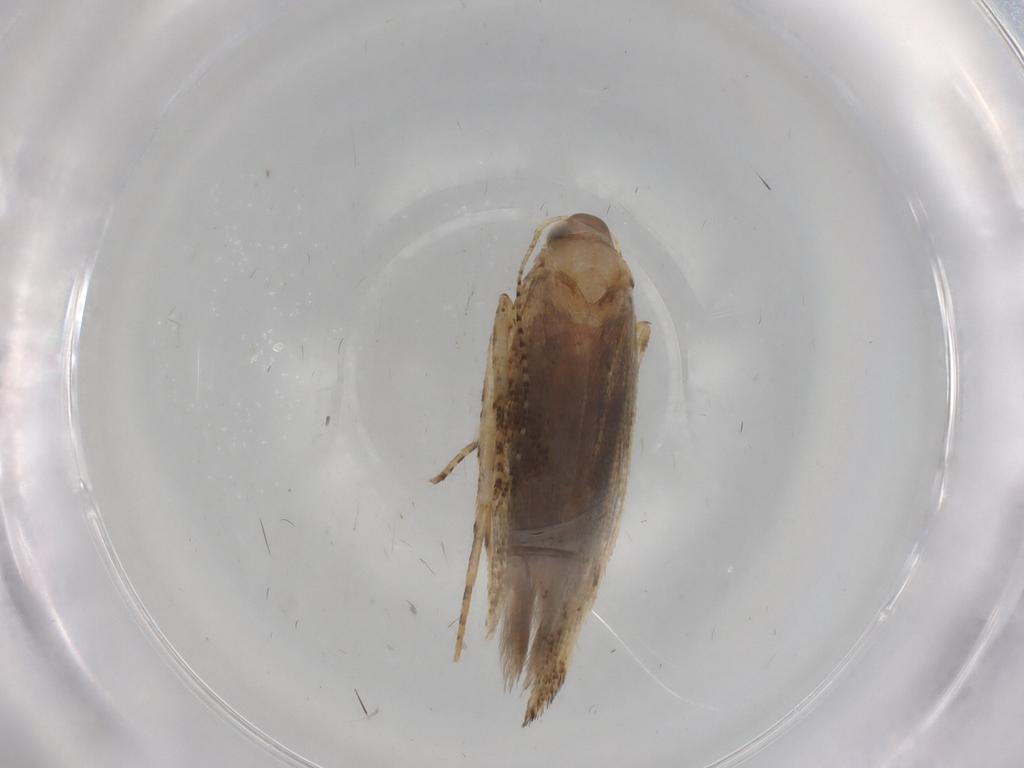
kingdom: Animalia
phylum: Arthropoda
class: Insecta
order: Lepidoptera
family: Gelechiidae
